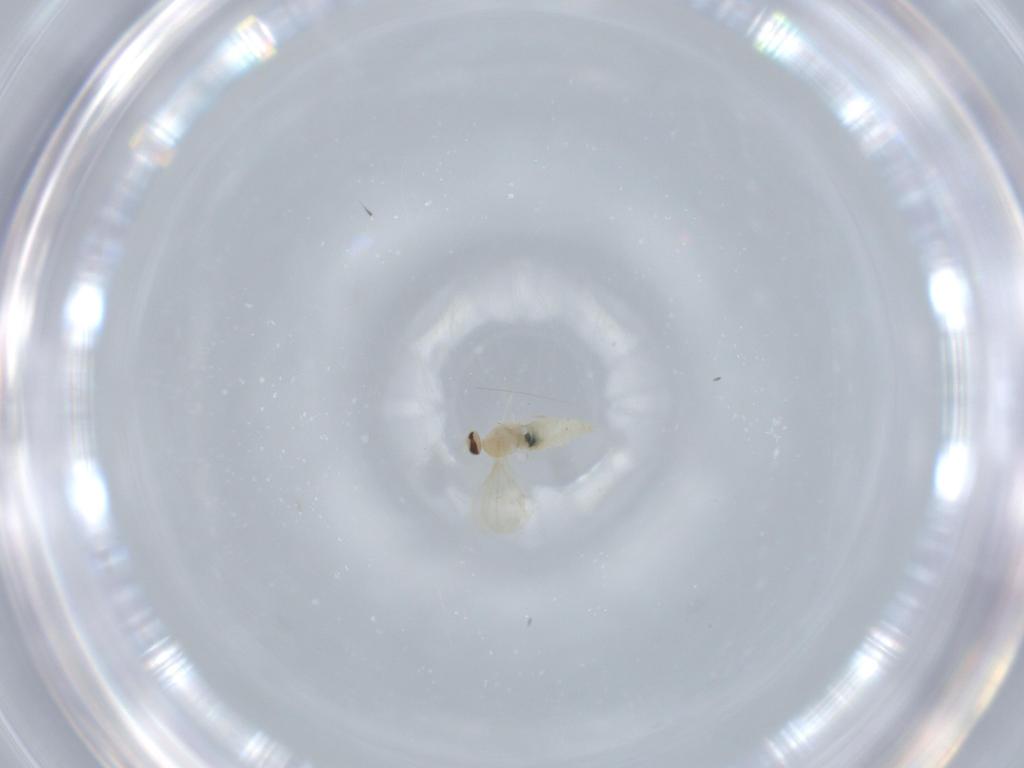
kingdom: Animalia
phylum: Arthropoda
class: Insecta
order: Diptera
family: Cecidomyiidae
